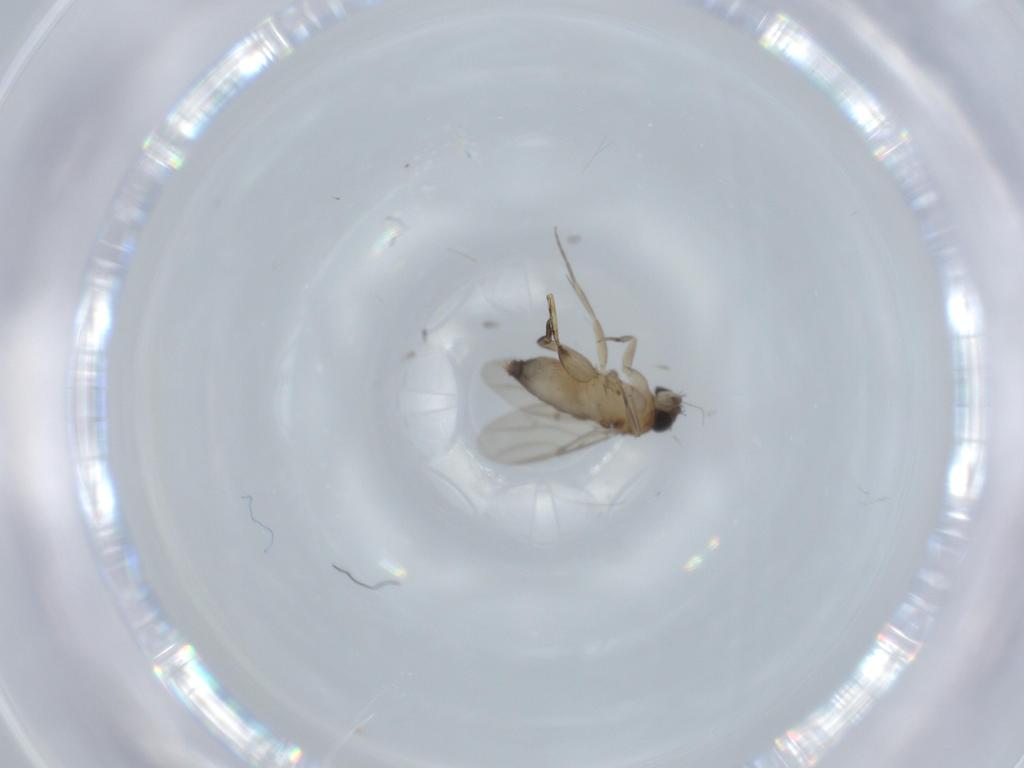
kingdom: Animalia
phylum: Arthropoda
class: Insecta
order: Diptera
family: Phoridae
